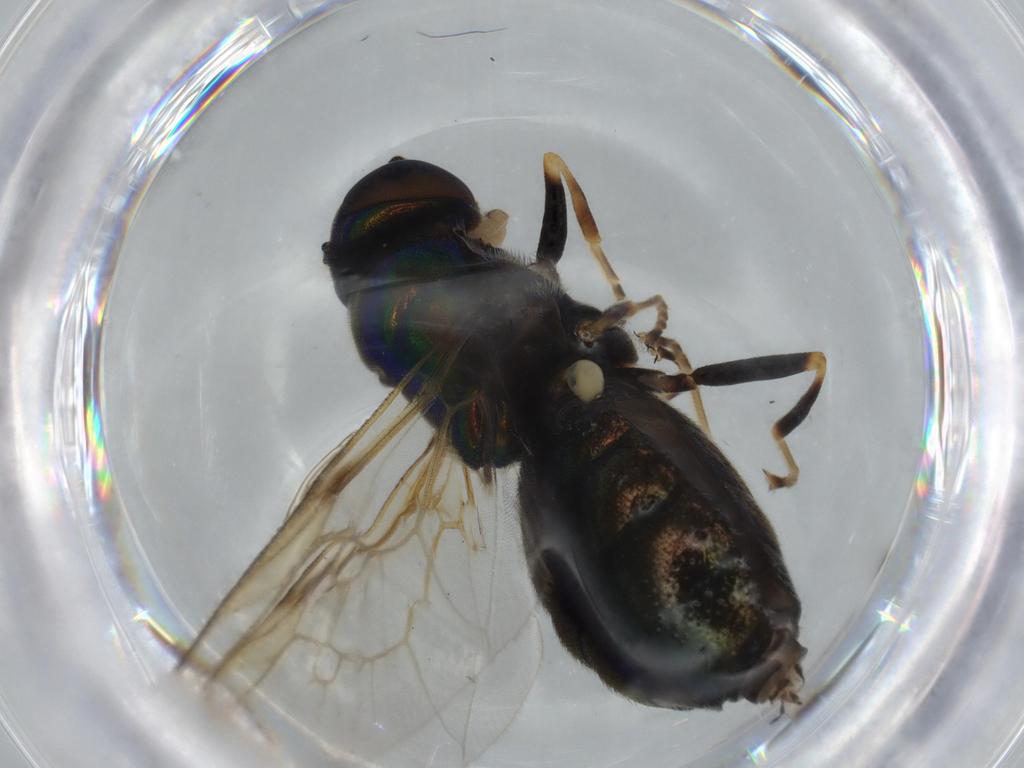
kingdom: Animalia
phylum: Arthropoda
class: Insecta
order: Diptera
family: Stratiomyidae
